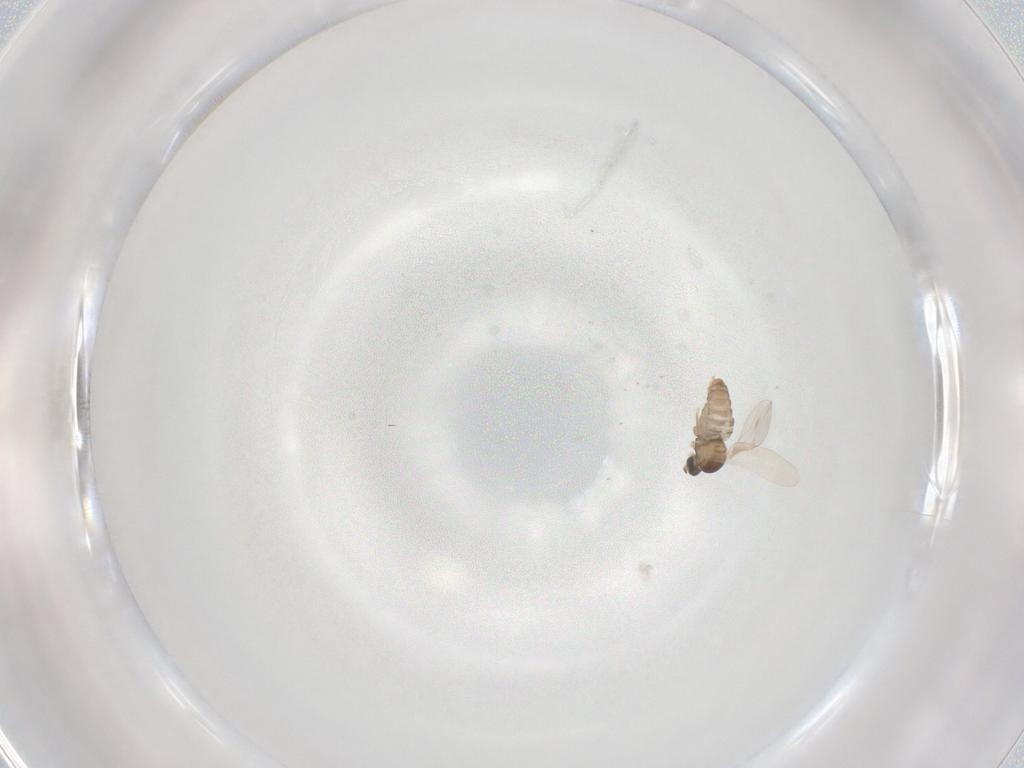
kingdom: Animalia
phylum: Arthropoda
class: Insecta
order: Diptera
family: Cecidomyiidae
